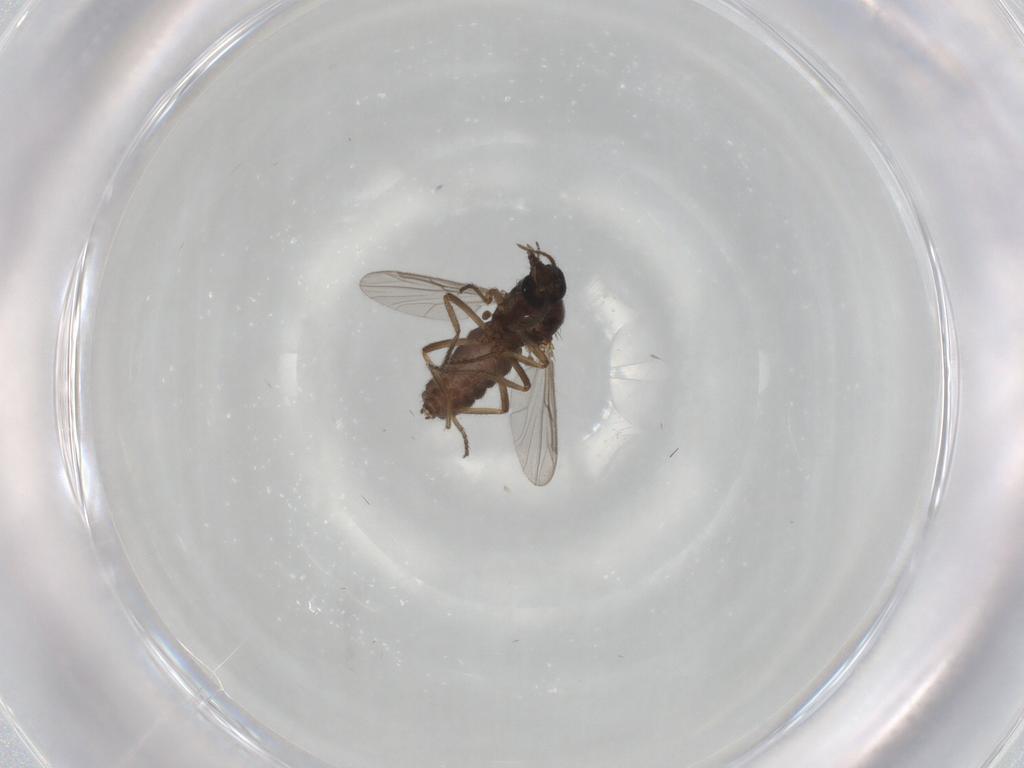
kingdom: Animalia
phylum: Arthropoda
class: Insecta
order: Diptera
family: Ceratopogonidae
